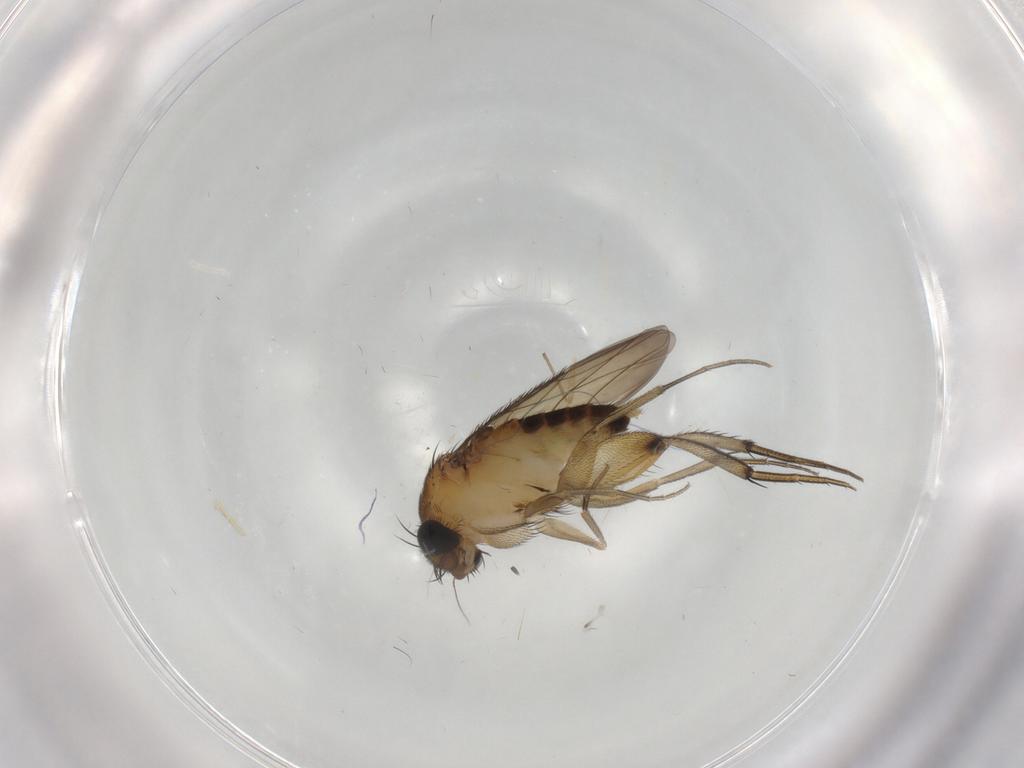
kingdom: Animalia
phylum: Arthropoda
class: Insecta
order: Diptera
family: Phoridae
